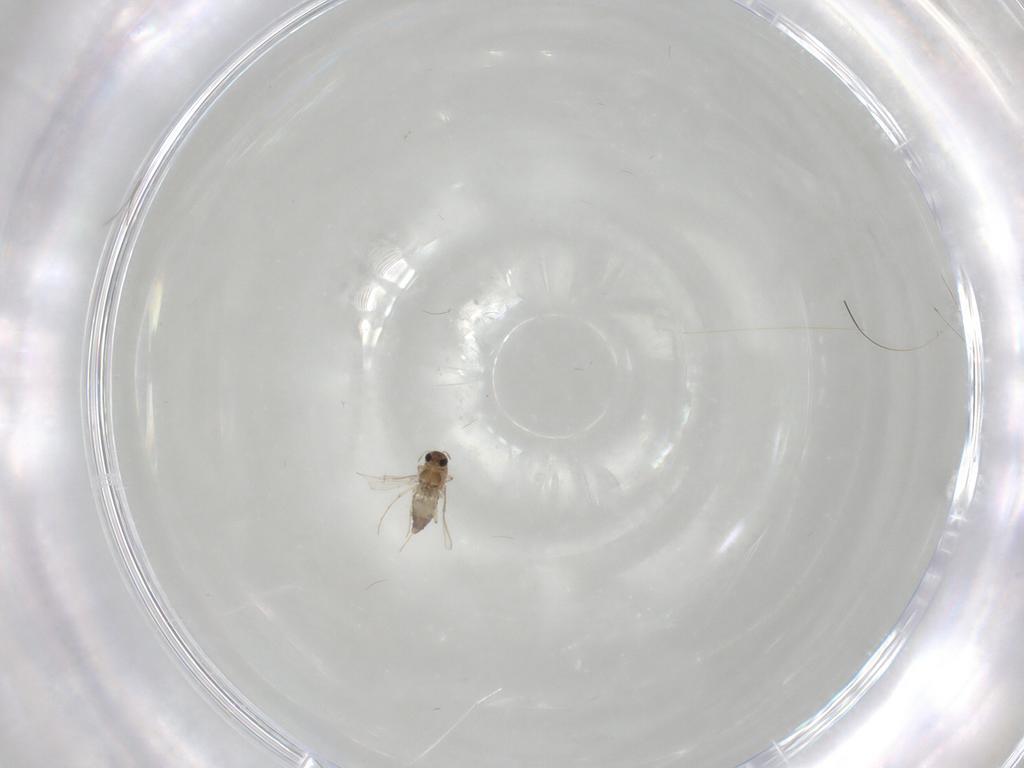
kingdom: Animalia
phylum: Arthropoda
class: Insecta
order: Diptera
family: Chironomidae
